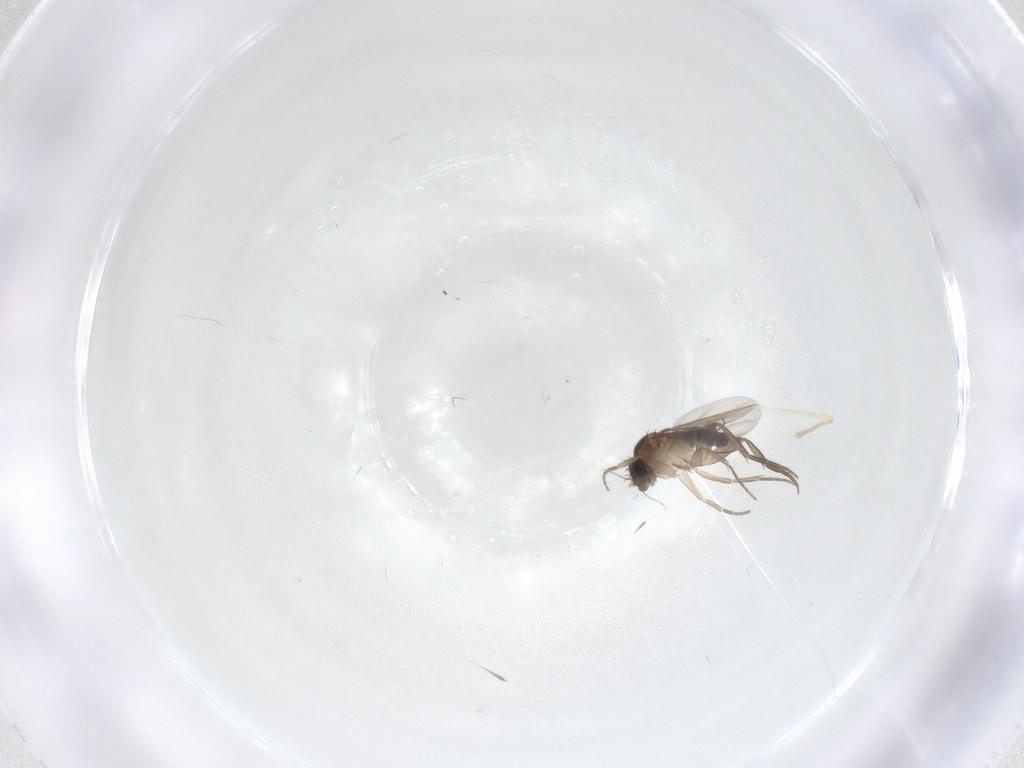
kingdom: Animalia
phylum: Arthropoda
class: Insecta
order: Diptera
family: Phoridae
